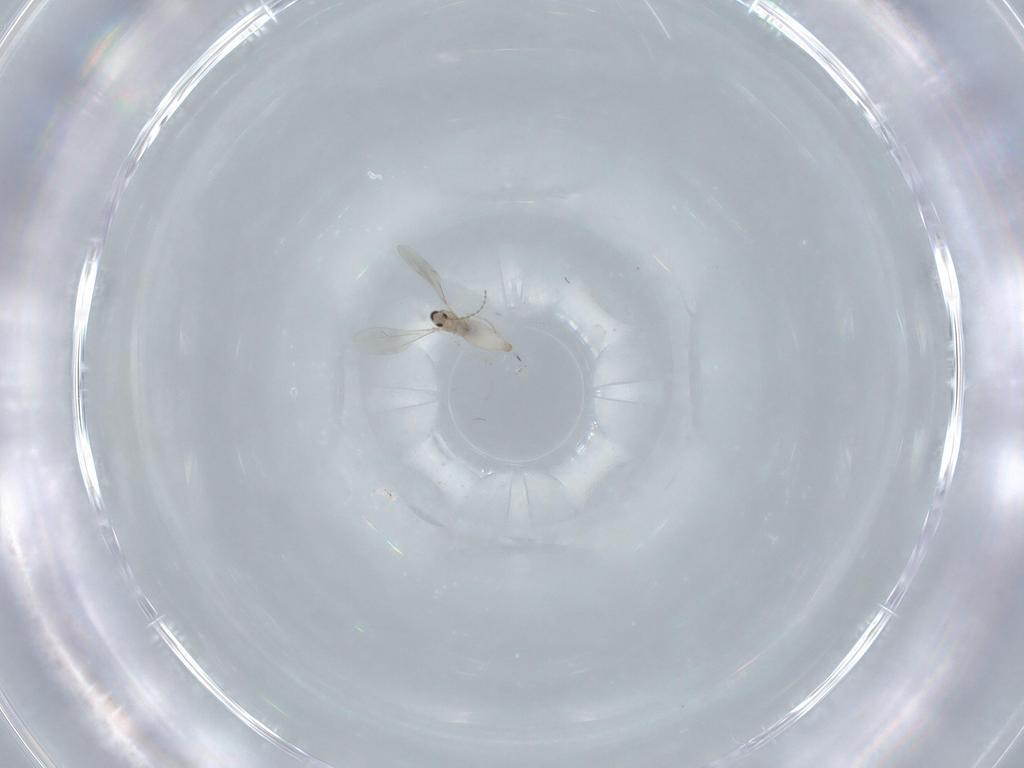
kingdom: Animalia
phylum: Arthropoda
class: Insecta
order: Diptera
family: Cecidomyiidae
